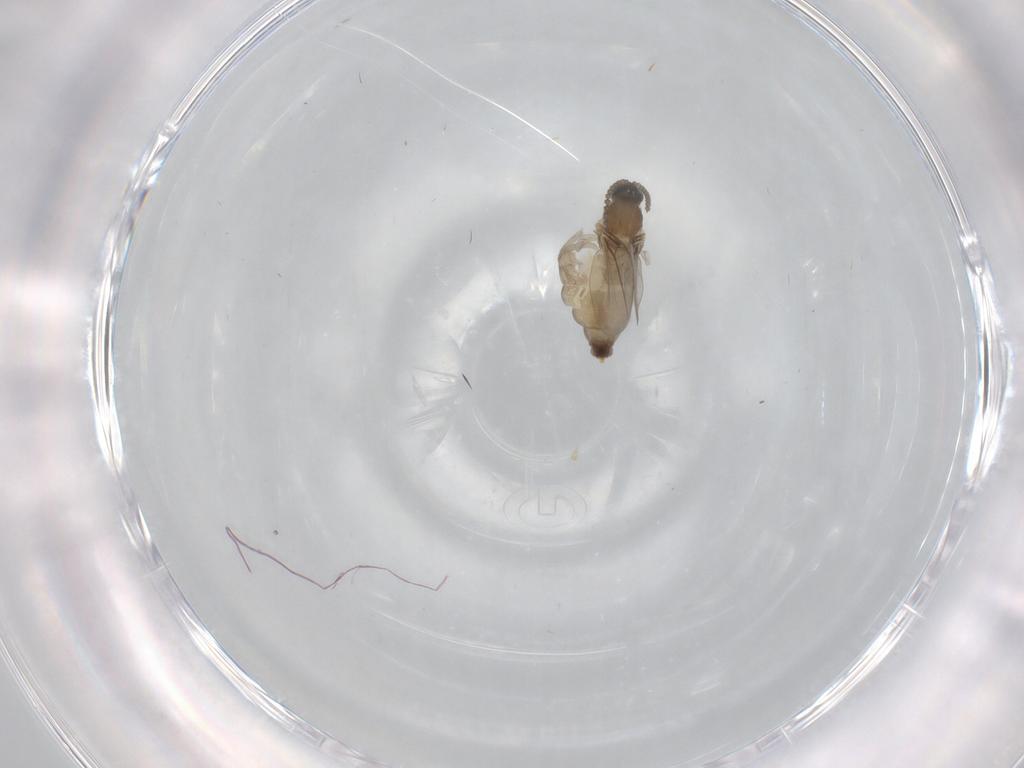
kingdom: Animalia
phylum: Arthropoda
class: Insecta
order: Diptera
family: Cecidomyiidae
